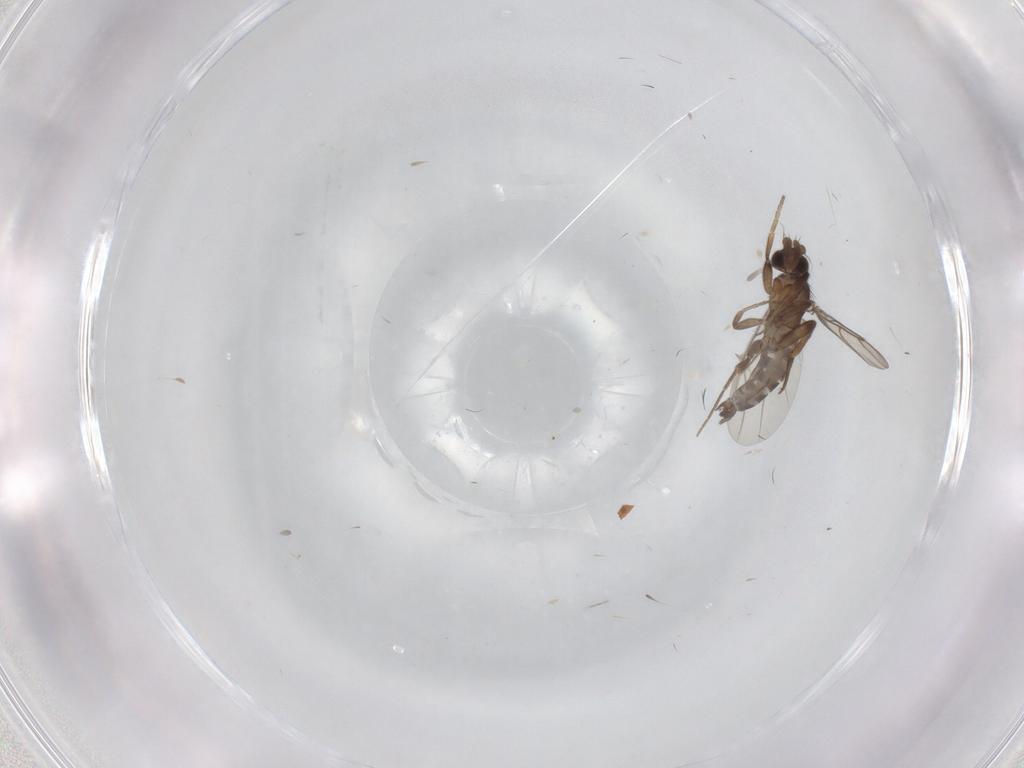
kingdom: Animalia
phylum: Arthropoda
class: Insecta
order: Diptera
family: Phoridae
